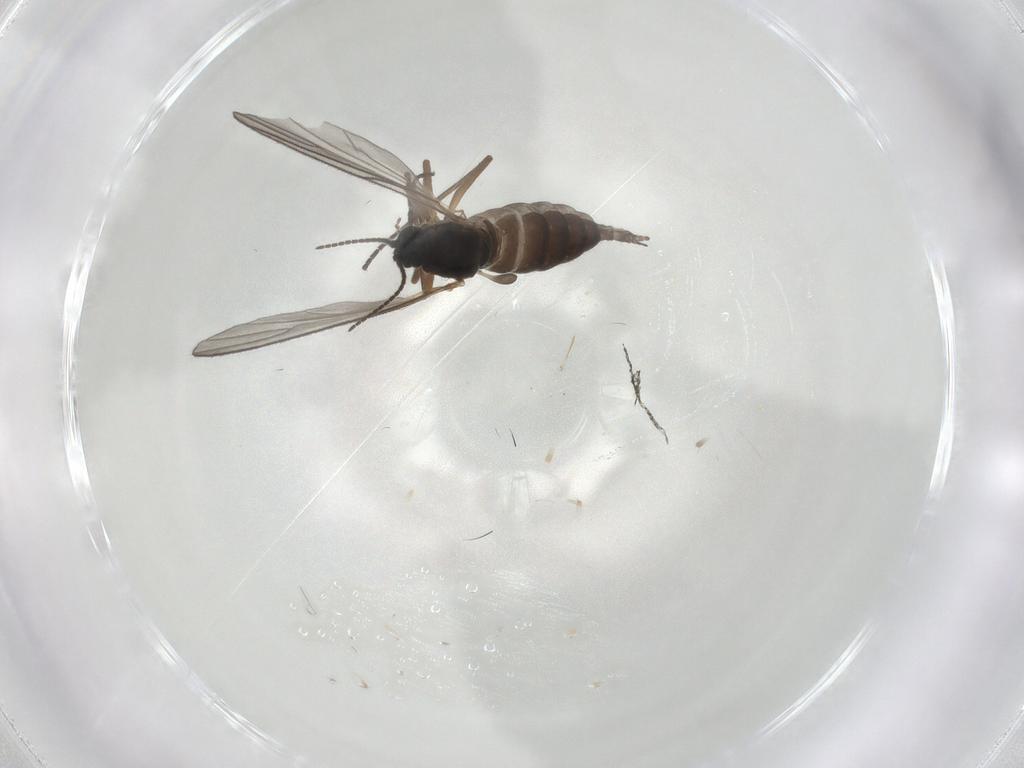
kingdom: Animalia
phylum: Arthropoda
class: Insecta
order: Diptera
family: Sciaridae
